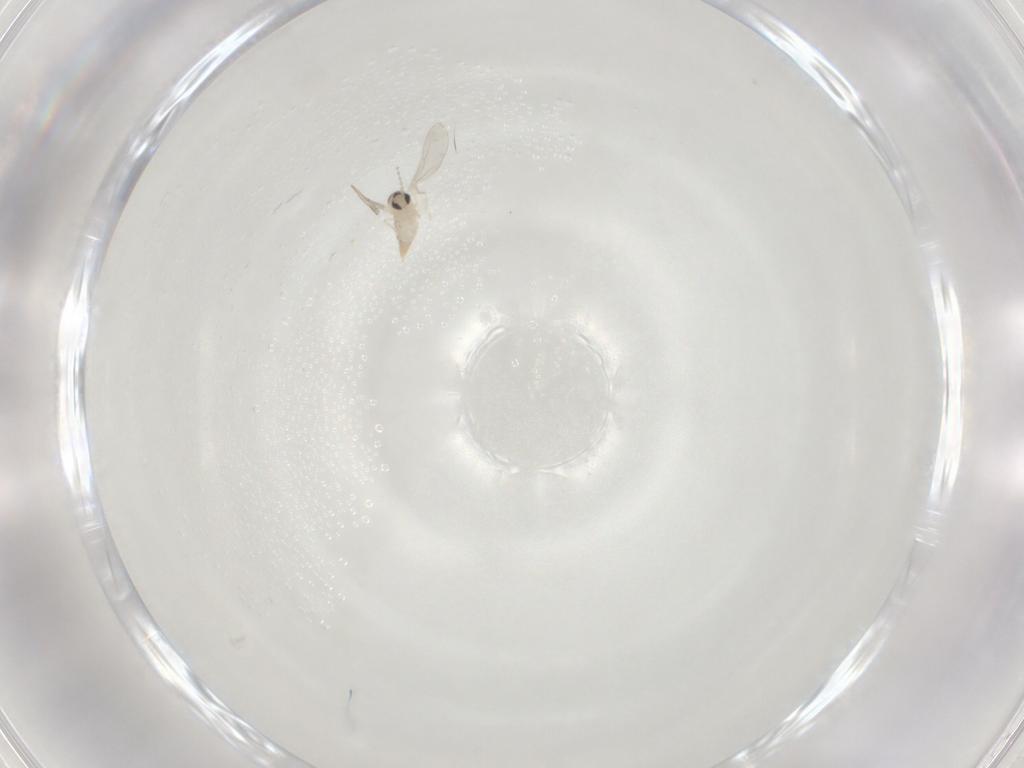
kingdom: Animalia
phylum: Arthropoda
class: Insecta
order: Diptera
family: Cecidomyiidae
